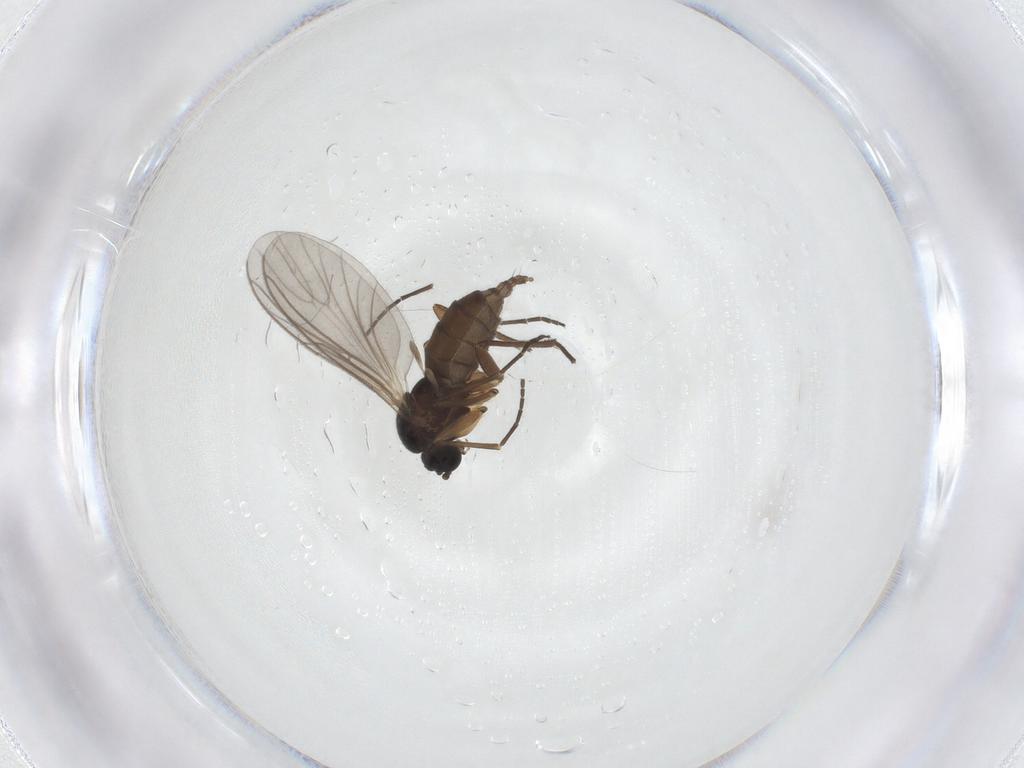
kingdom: Animalia
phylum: Arthropoda
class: Insecta
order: Diptera
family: Sciaridae
